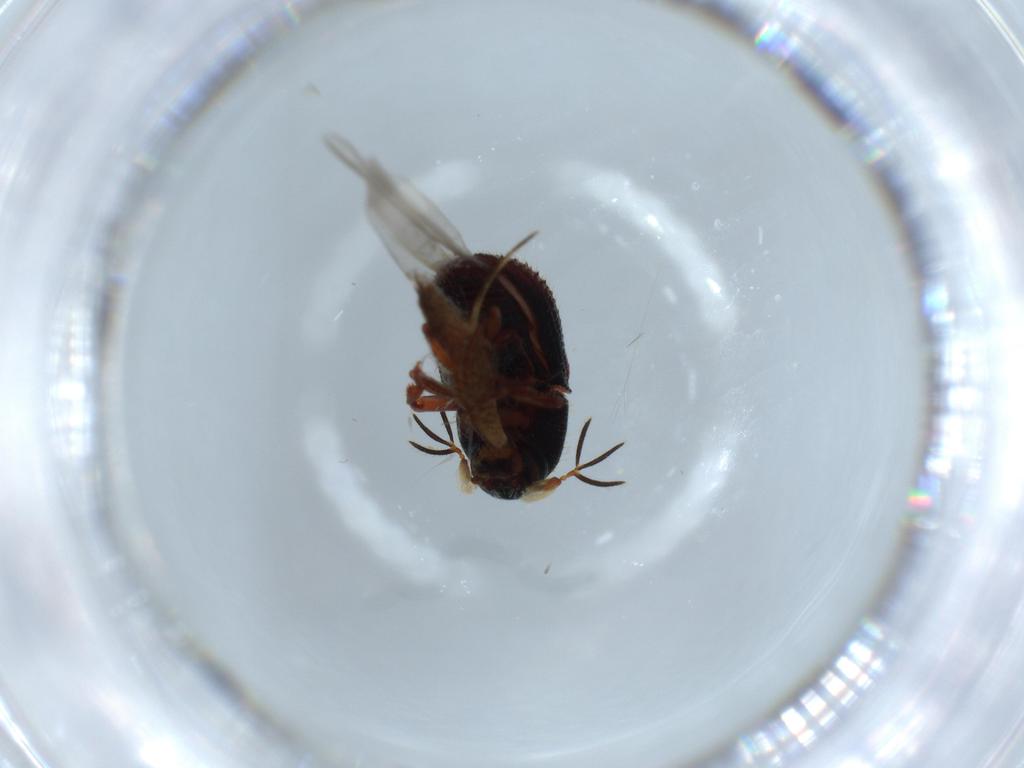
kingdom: Animalia
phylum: Arthropoda
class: Insecta
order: Coleoptera
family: Curculionidae
